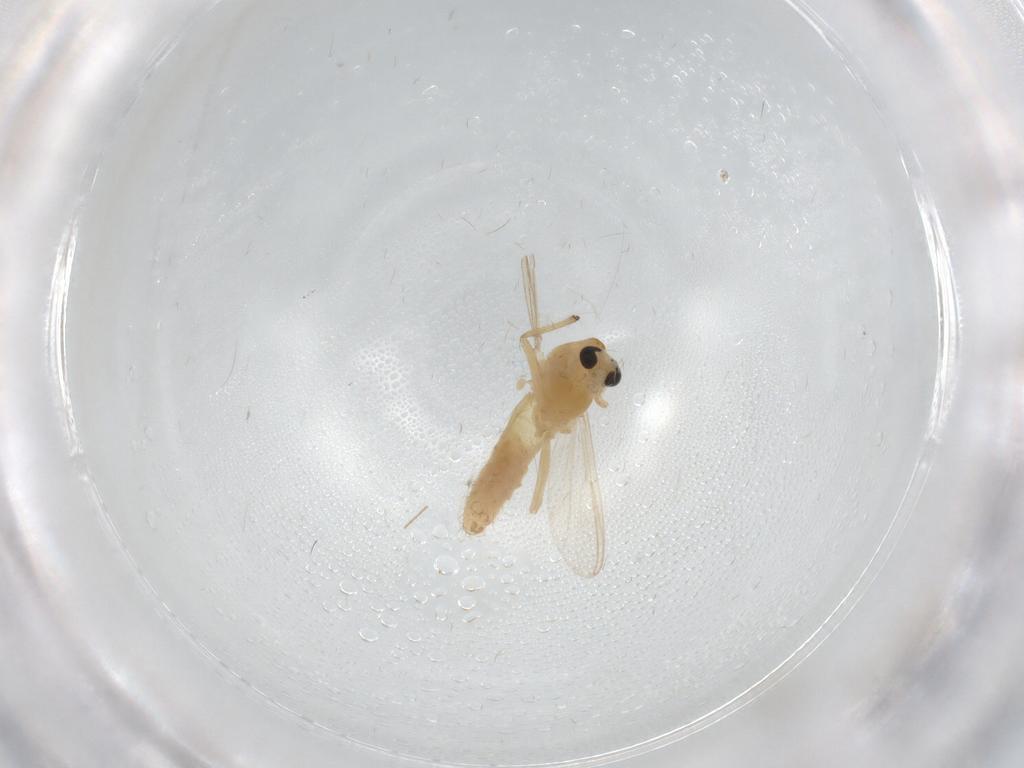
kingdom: Animalia
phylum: Arthropoda
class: Insecta
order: Diptera
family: Chironomidae
